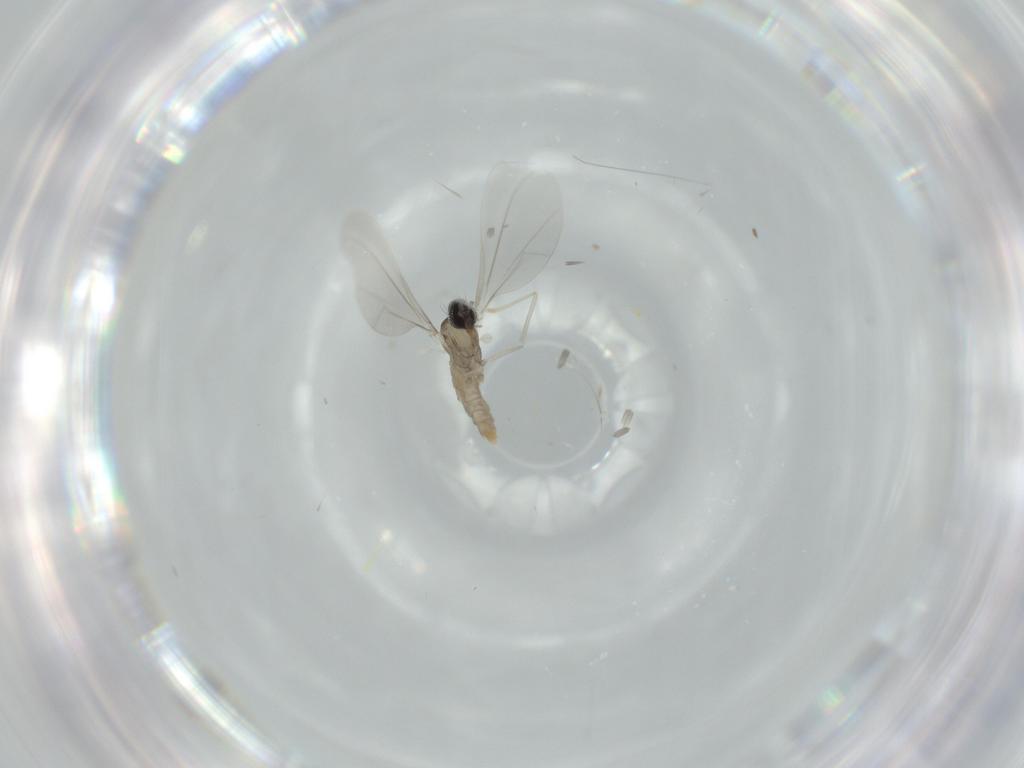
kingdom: Animalia
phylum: Arthropoda
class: Insecta
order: Diptera
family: Cecidomyiidae
